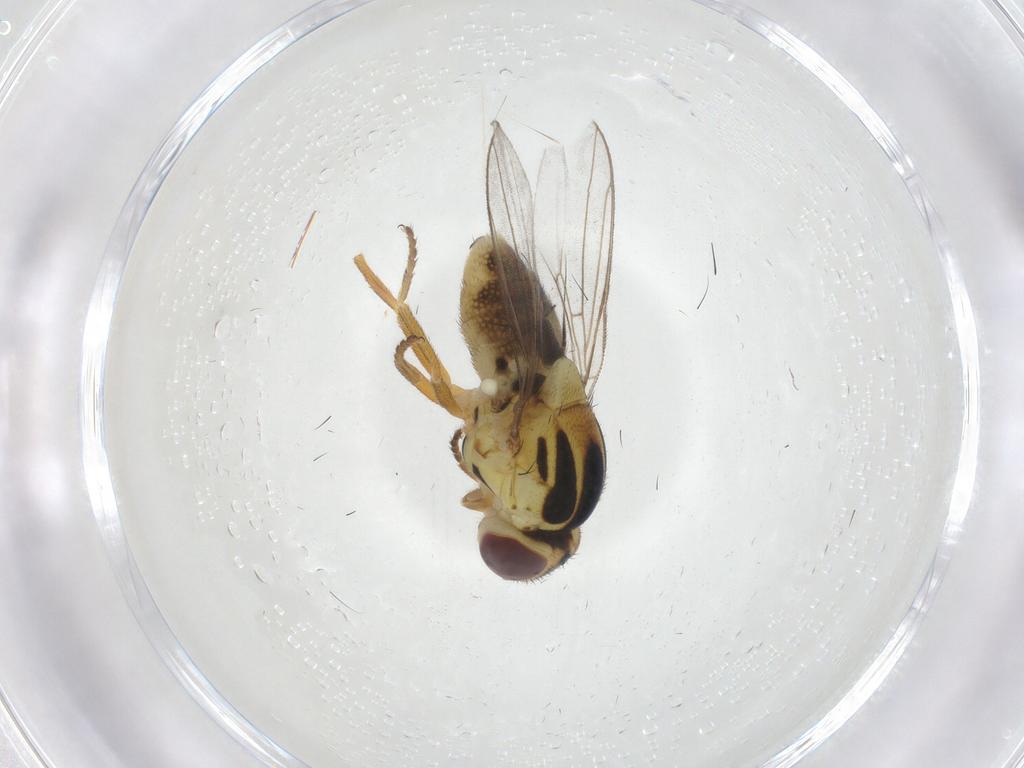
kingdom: Animalia
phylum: Arthropoda
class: Insecta
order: Diptera
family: Chloropidae
